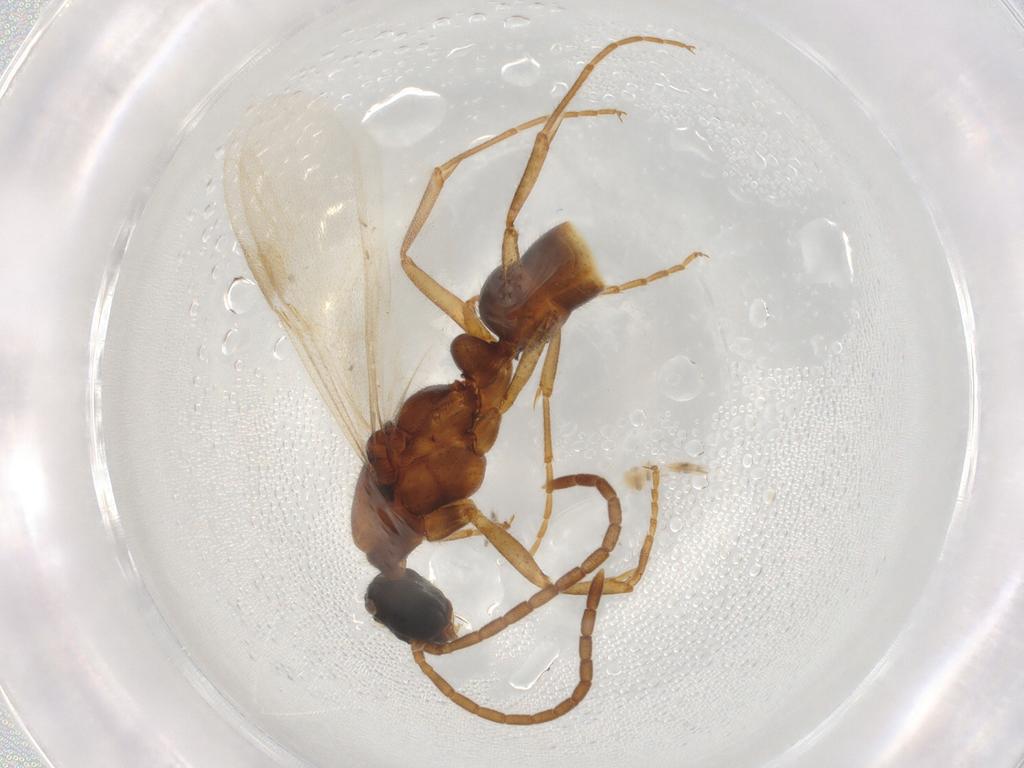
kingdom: Animalia
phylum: Arthropoda
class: Insecta
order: Hymenoptera
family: Formicidae
